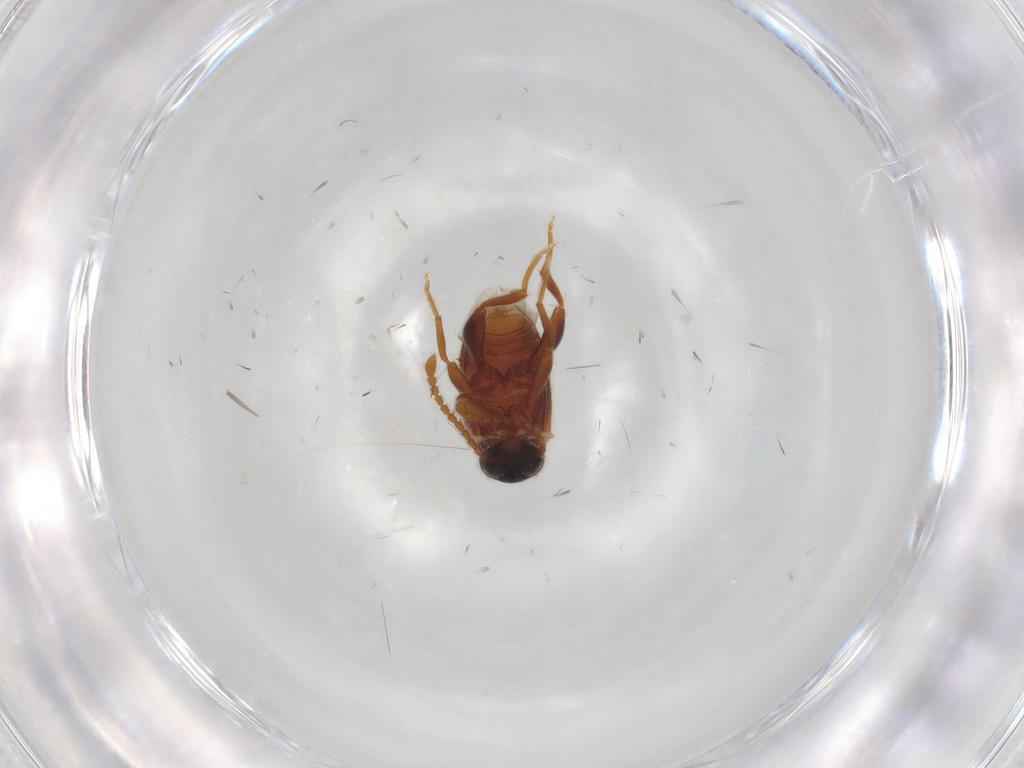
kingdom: Animalia
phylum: Arthropoda
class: Insecta
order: Coleoptera
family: Aderidae
